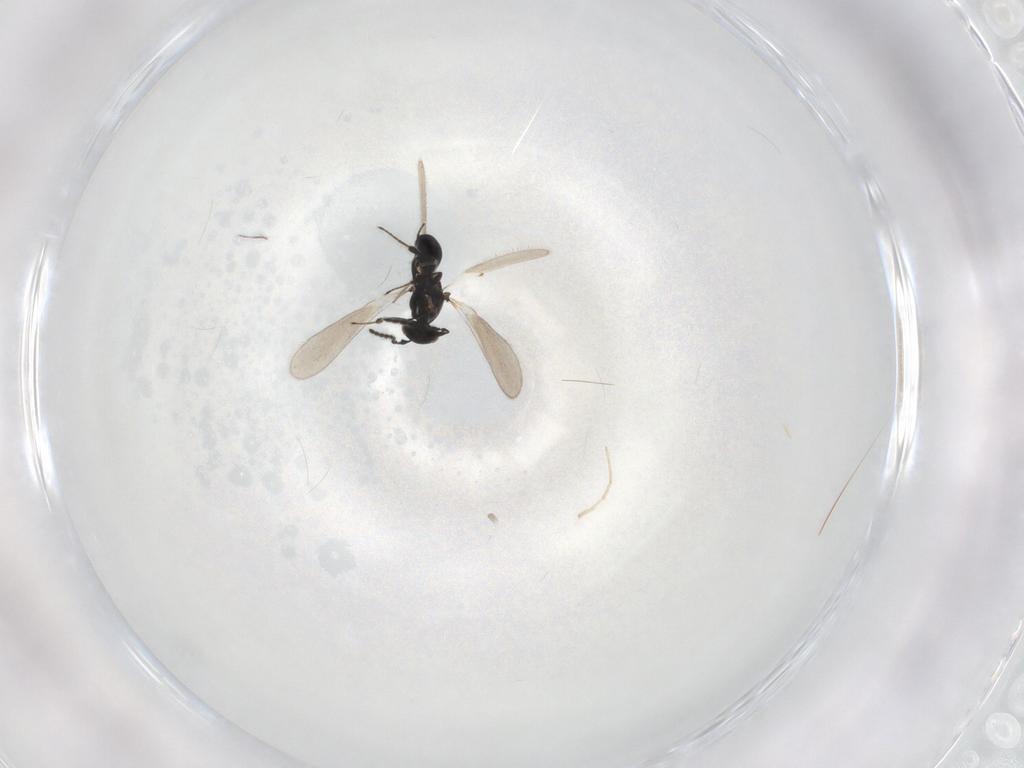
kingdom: Animalia
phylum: Arthropoda
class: Insecta
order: Hymenoptera
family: Platygastridae
